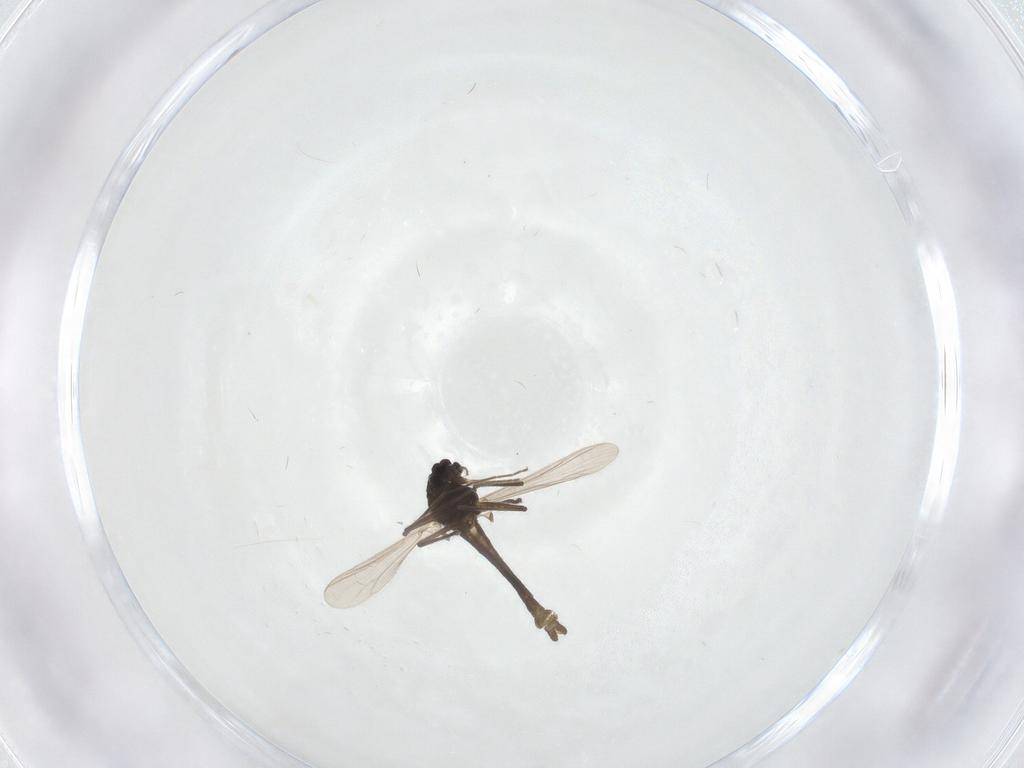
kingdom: Animalia
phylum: Arthropoda
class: Insecta
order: Diptera
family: Chironomidae
